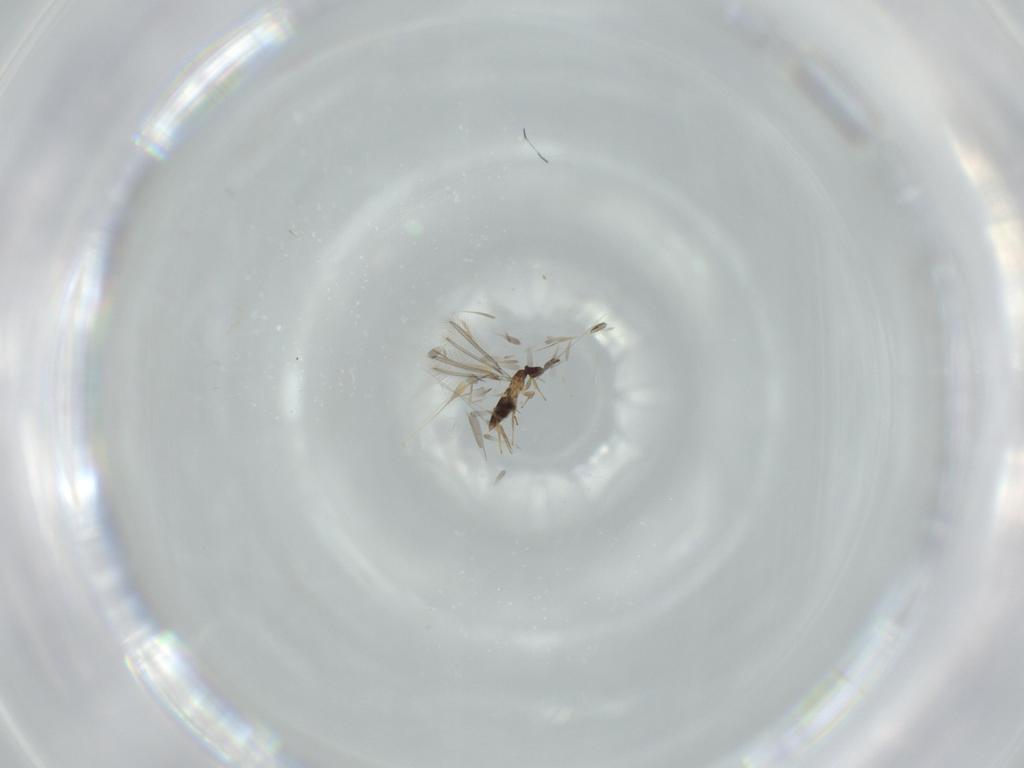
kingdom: Animalia
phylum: Arthropoda
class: Insecta
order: Hymenoptera
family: Mymaridae
